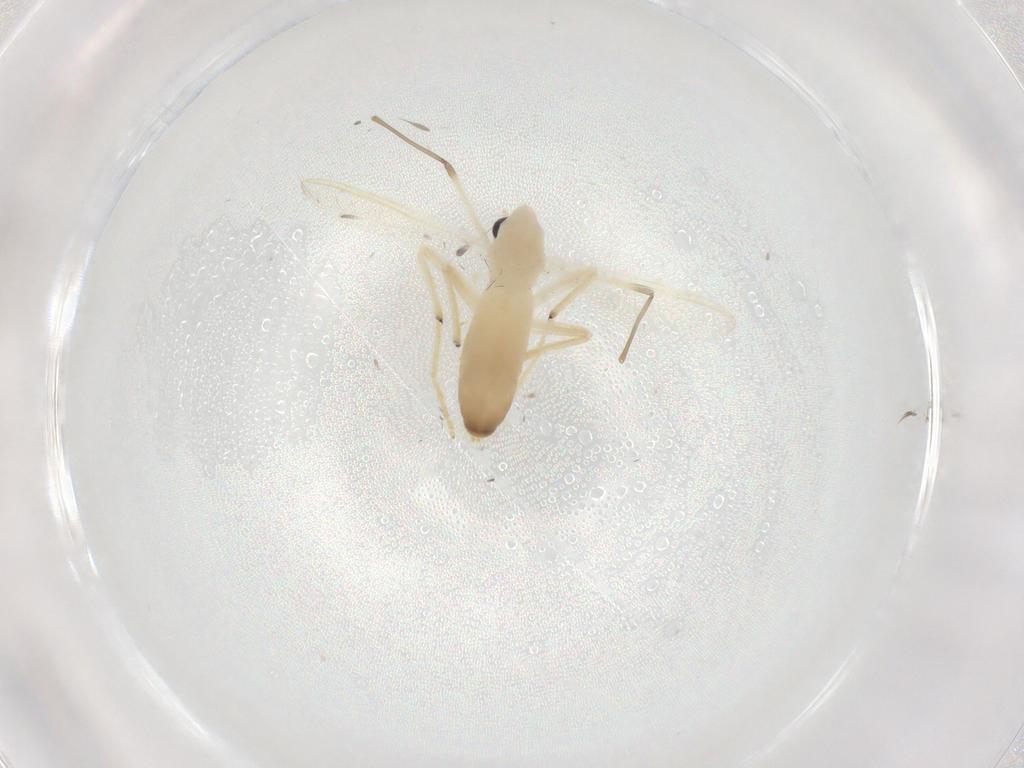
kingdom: Animalia
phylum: Arthropoda
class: Insecta
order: Diptera
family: Chironomidae
